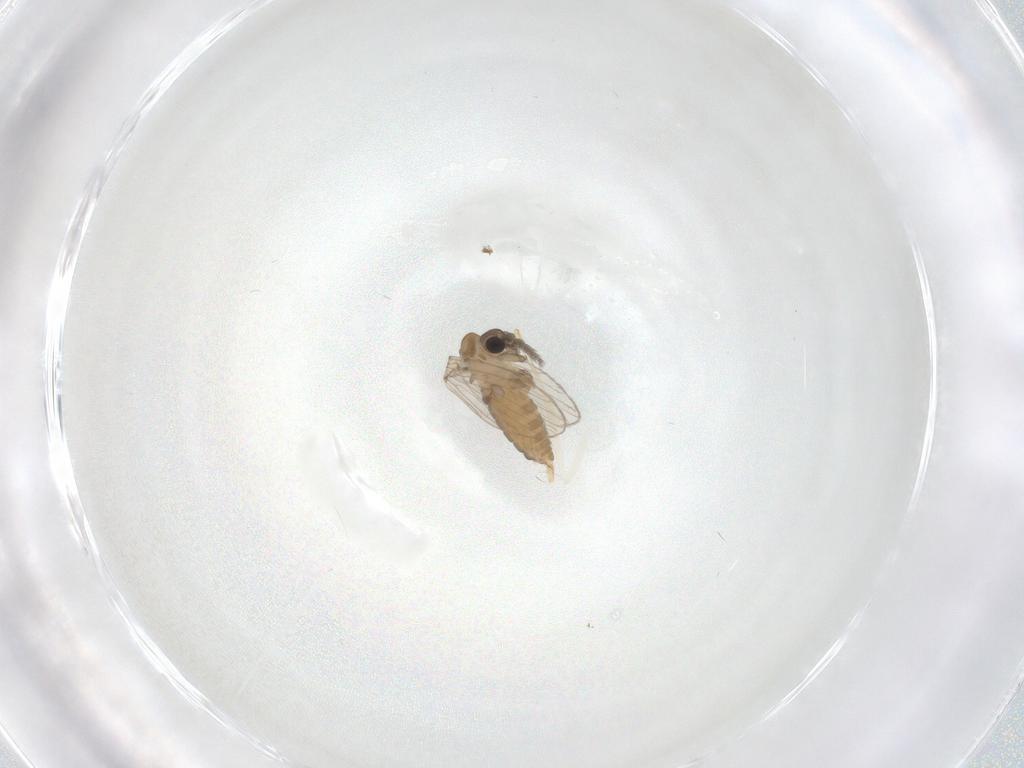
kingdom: Animalia
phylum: Arthropoda
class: Insecta
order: Diptera
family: Psychodidae
